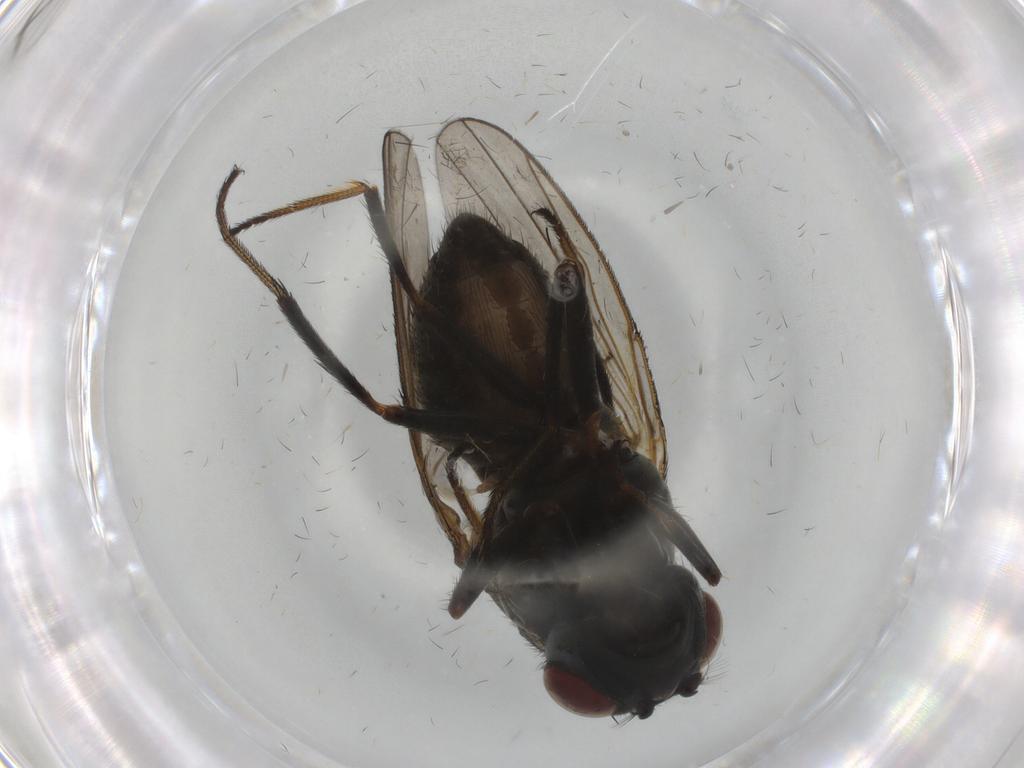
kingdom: Animalia
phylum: Arthropoda
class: Insecta
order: Diptera
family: Ephydridae
